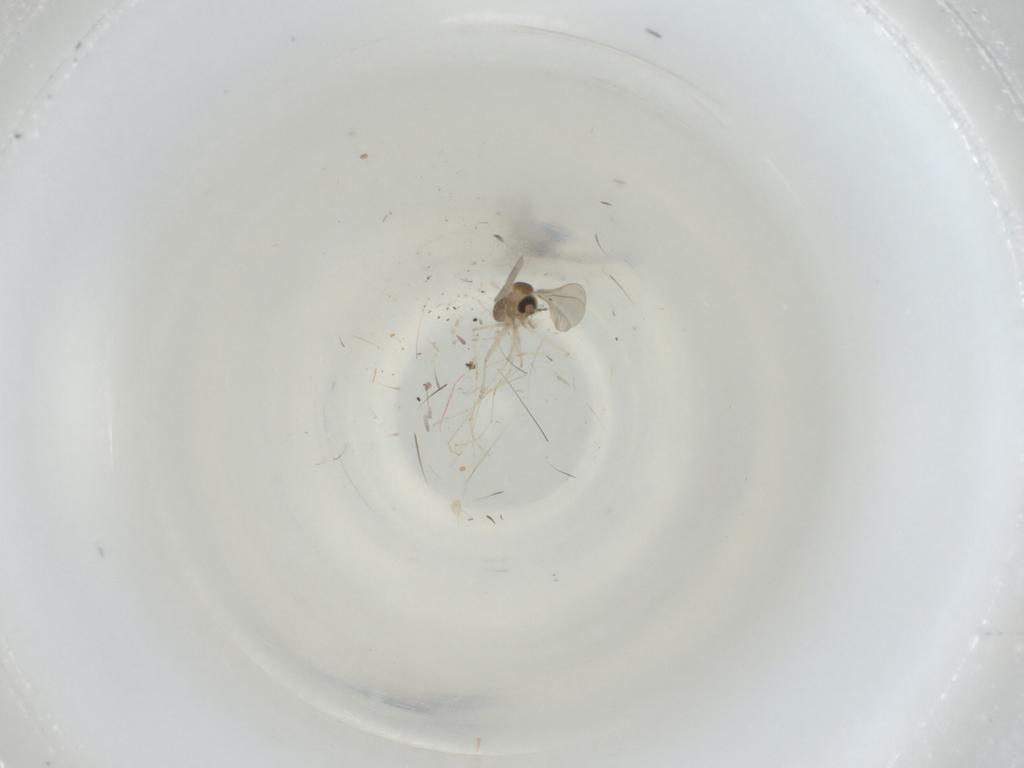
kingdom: Animalia
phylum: Arthropoda
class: Insecta
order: Diptera
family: Cecidomyiidae
